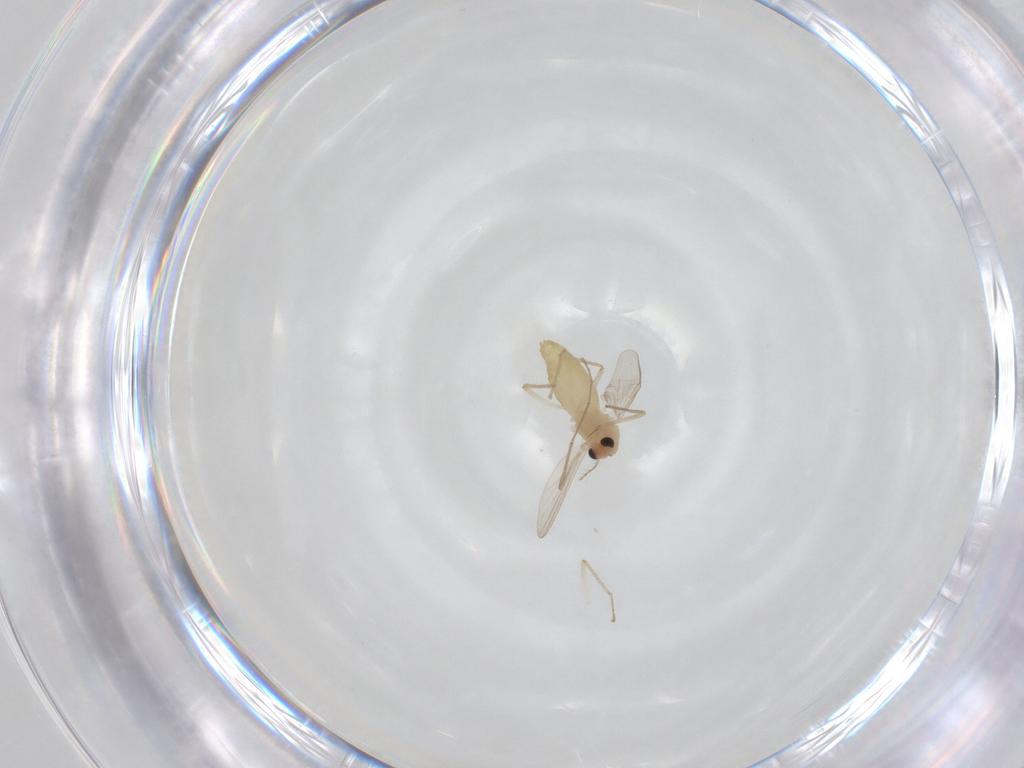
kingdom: Animalia
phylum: Arthropoda
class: Insecta
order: Diptera
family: Chironomidae
